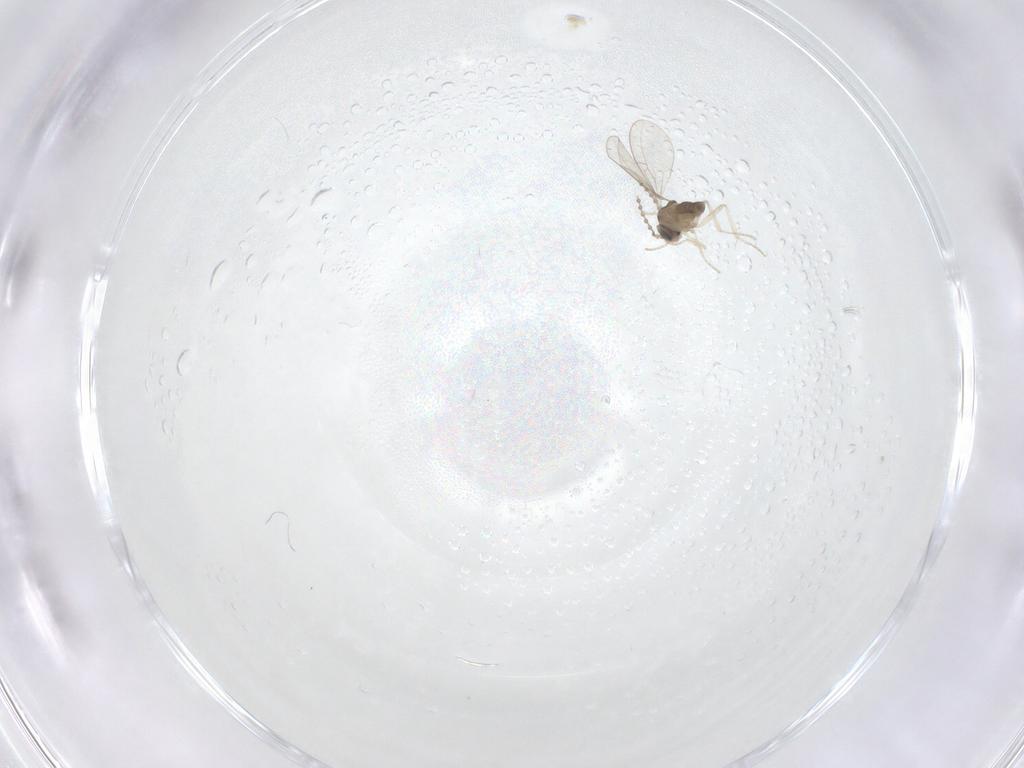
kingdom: Animalia
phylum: Arthropoda
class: Insecta
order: Diptera
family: Cecidomyiidae
